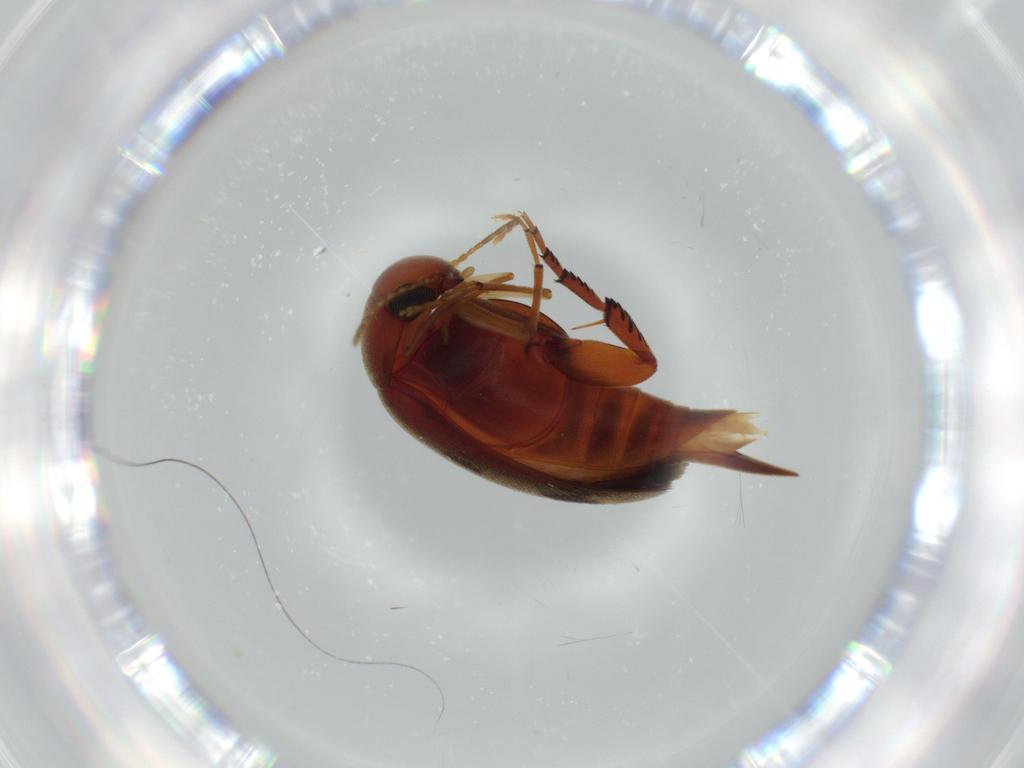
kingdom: Animalia
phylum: Arthropoda
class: Insecta
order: Coleoptera
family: Mordellidae
